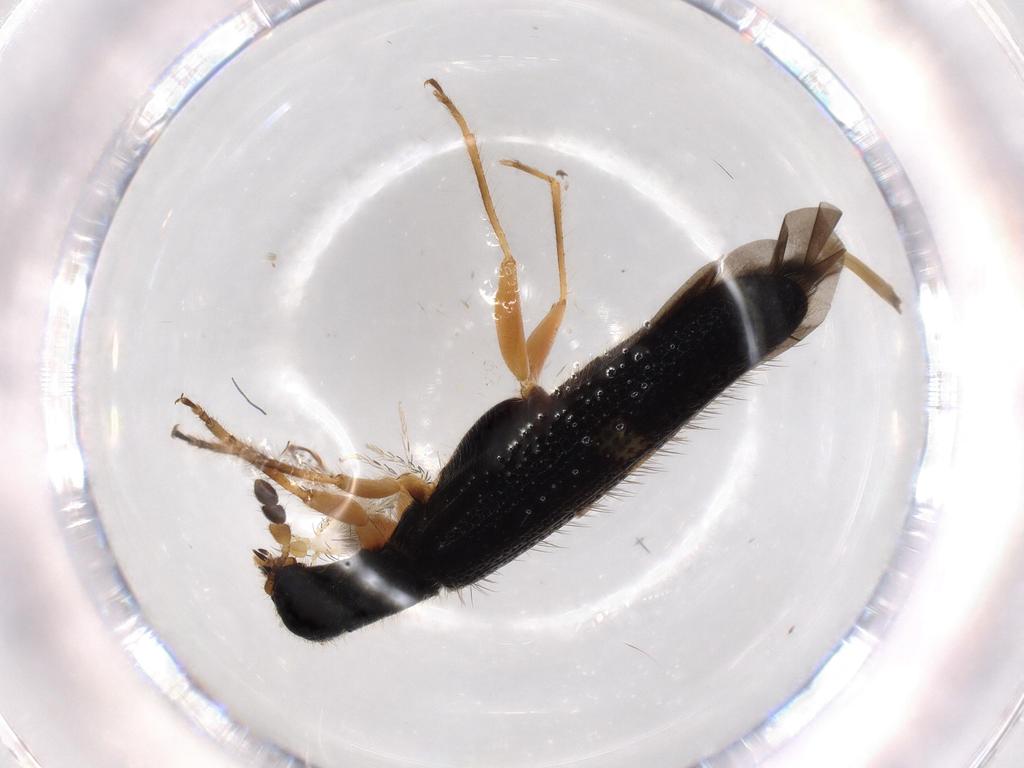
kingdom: Animalia
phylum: Arthropoda
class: Insecta
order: Coleoptera
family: Cleridae
